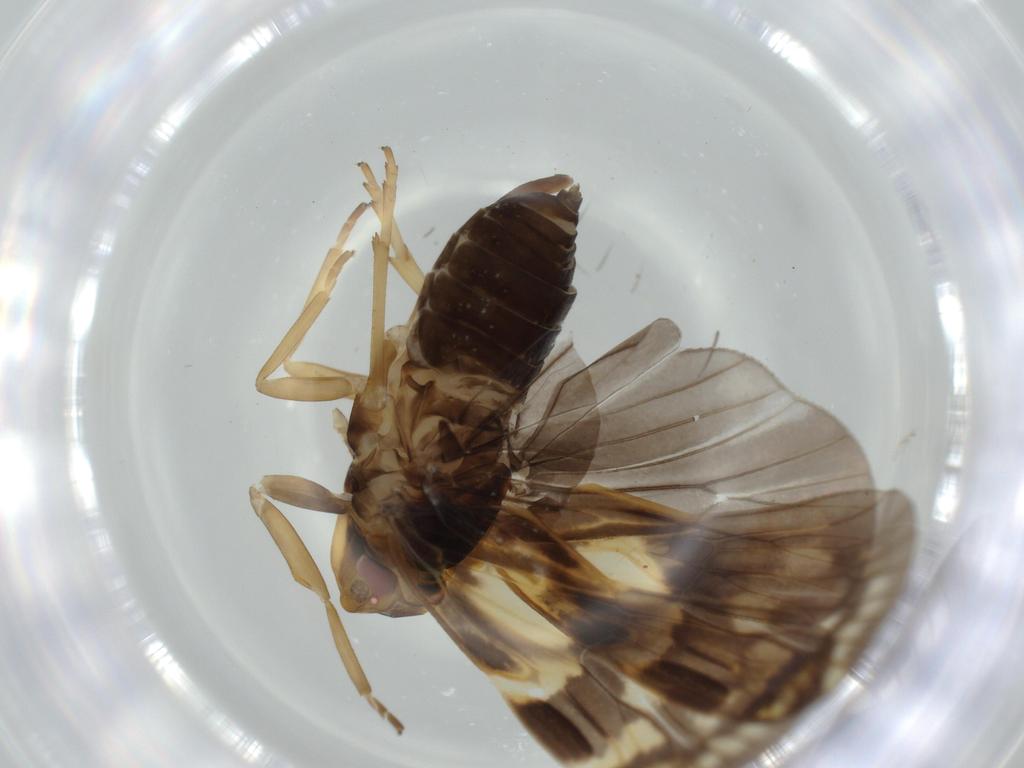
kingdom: Animalia
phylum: Arthropoda
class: Insecta
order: Hemiptera
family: Cixiidae
